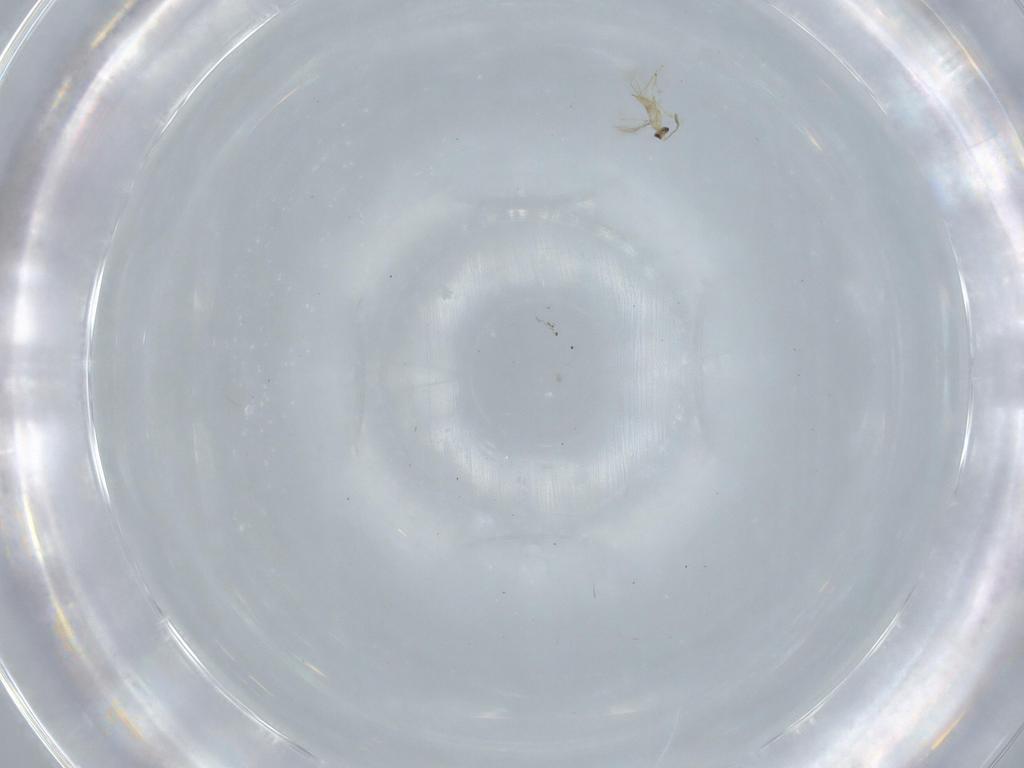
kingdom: Animalia
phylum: Arthropoda
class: Insecta
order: Hymenoptera
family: Mymaridae
